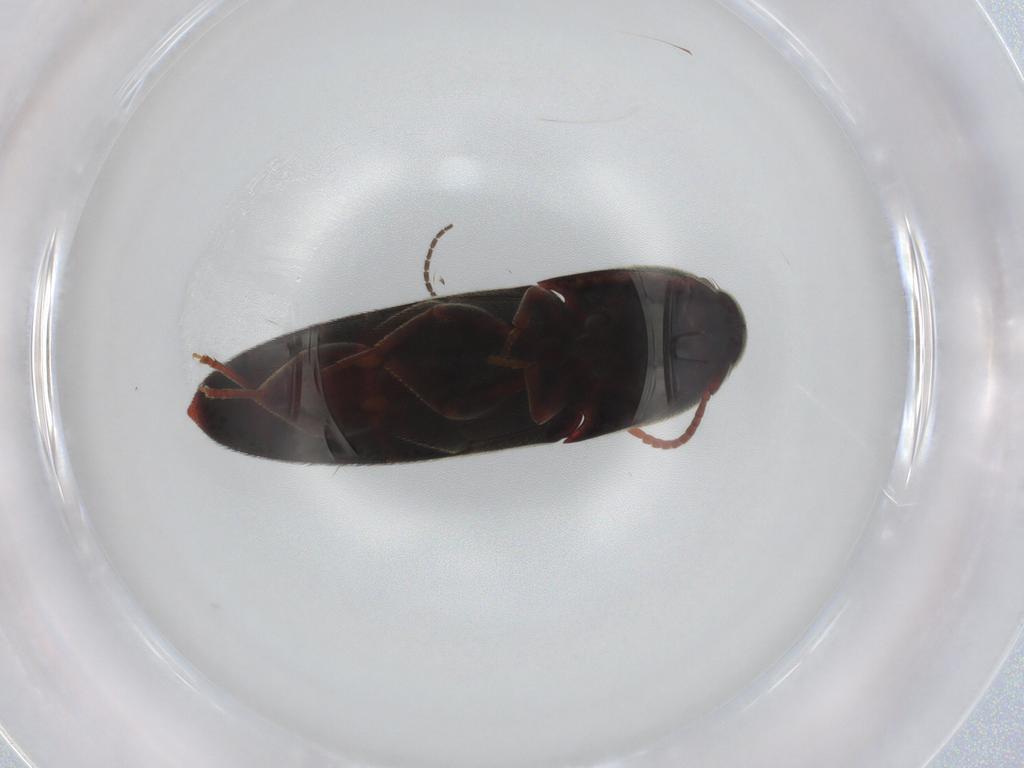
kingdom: Animalia
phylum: Arthropoda
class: Insecta
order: Coleoptera
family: Eucnemidae
